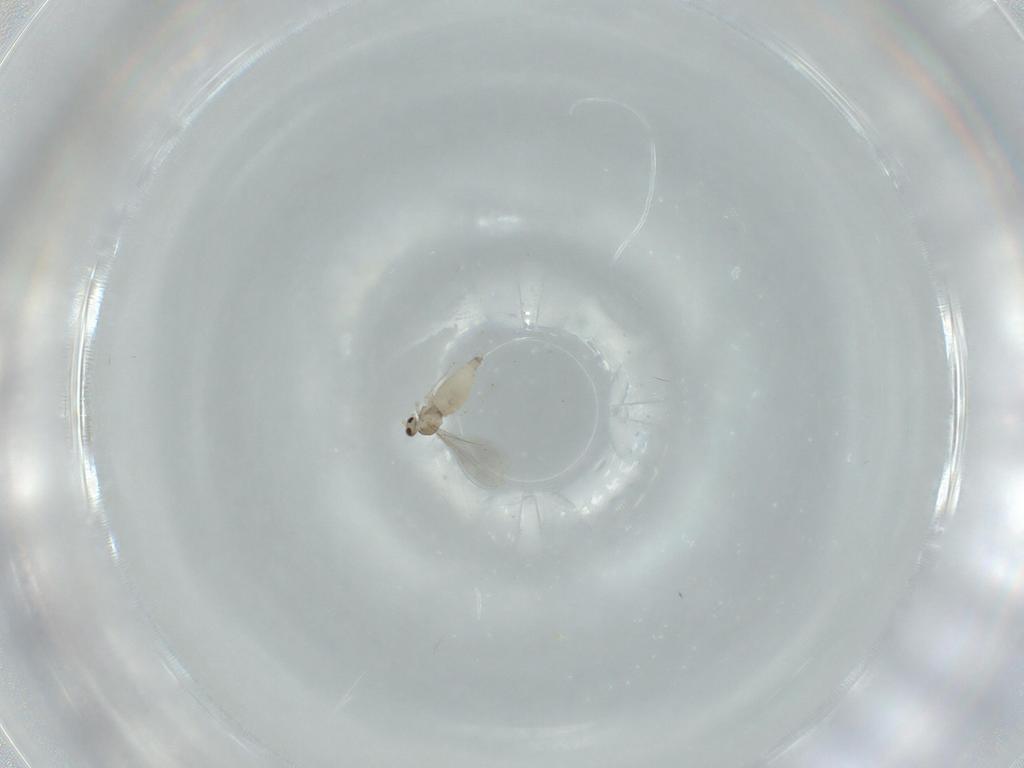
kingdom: Animalia
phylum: Arthropoda
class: Insecta
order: Diptera
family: Cecidomyiidae
